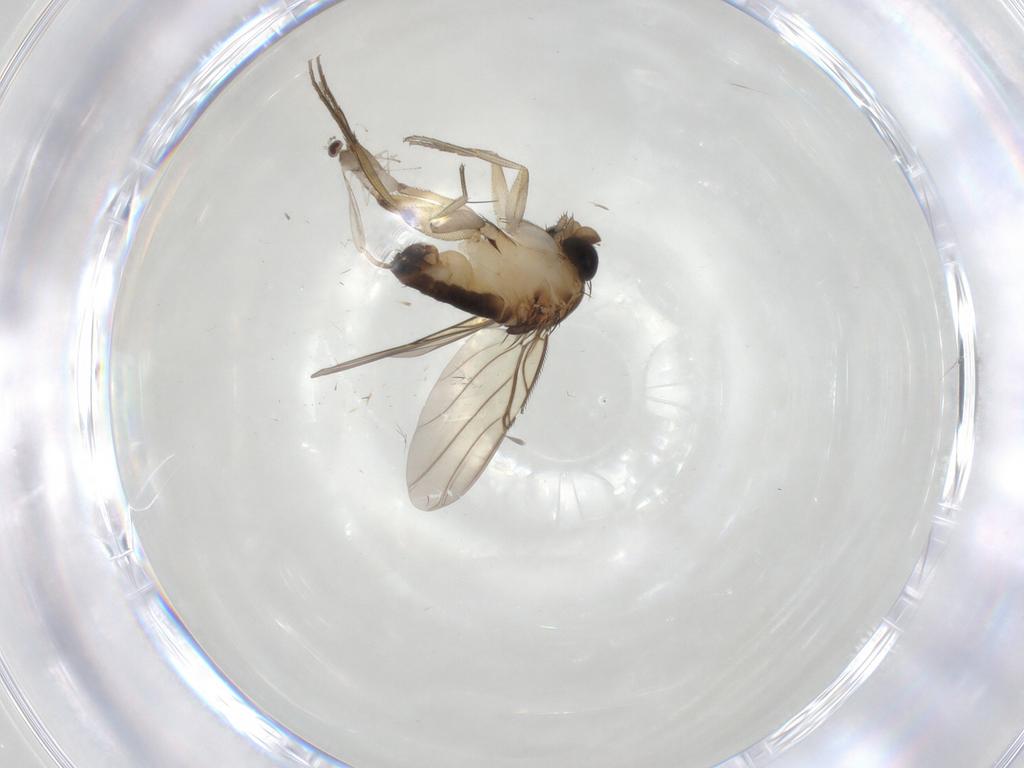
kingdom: Animalia
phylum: Arthropoda
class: Insecta
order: Diptera
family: Phoridae
